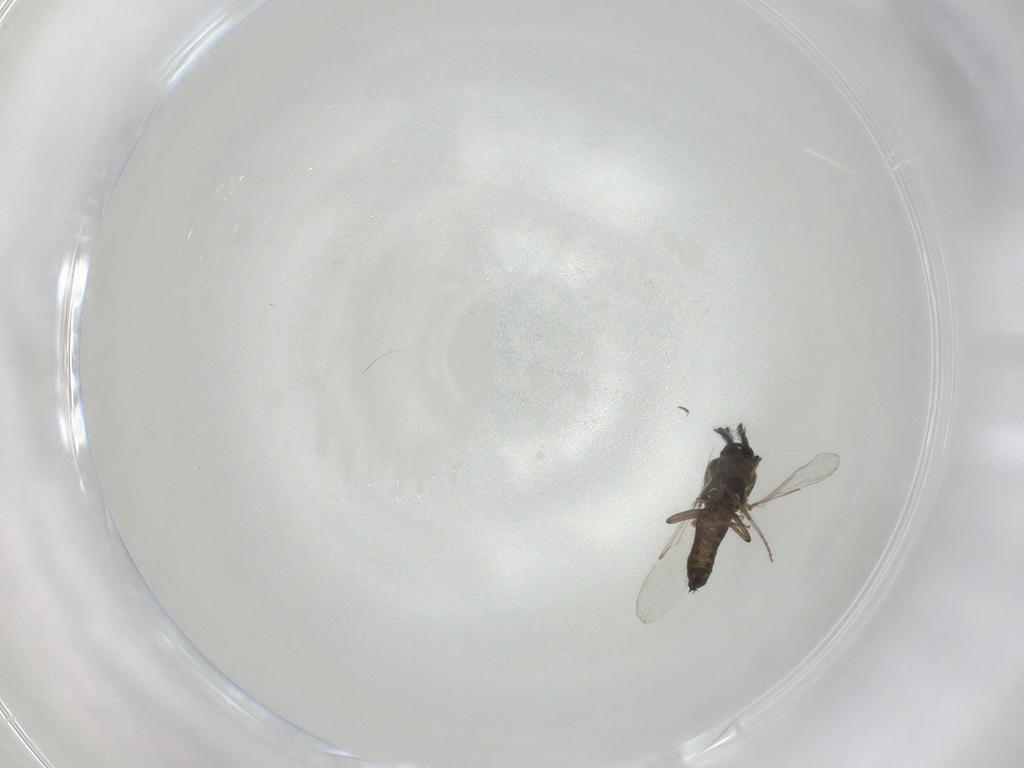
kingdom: Animalia
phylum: Arthropoda
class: Insecta
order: Diptera
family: Ceratopogonidae
